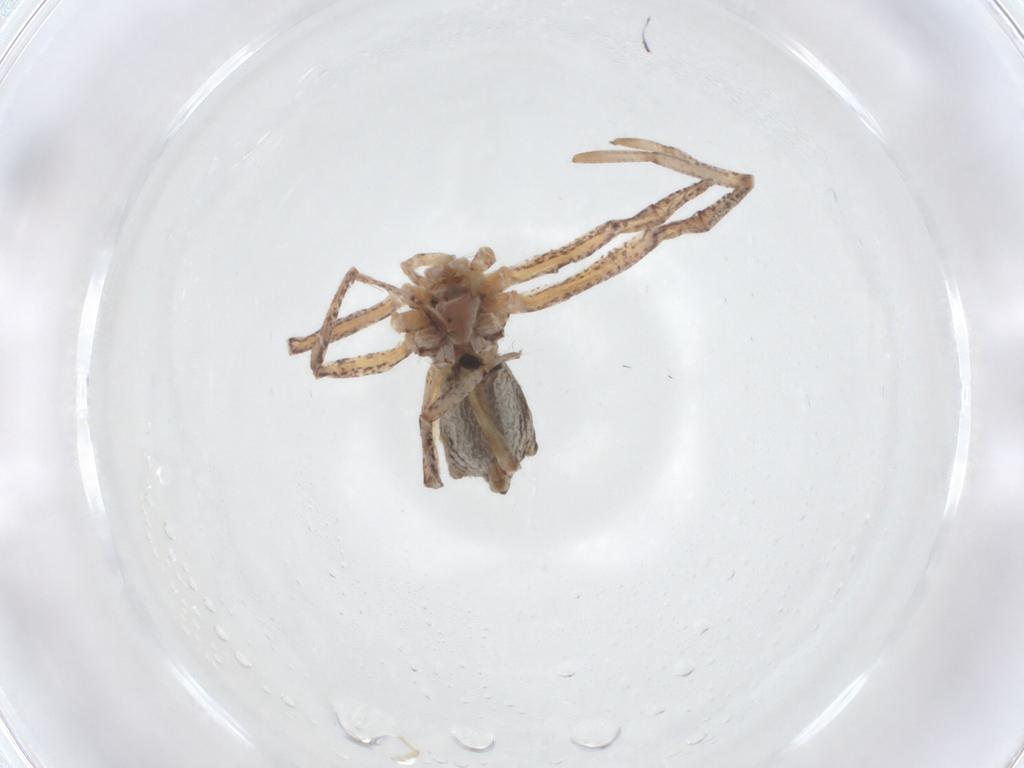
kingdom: Animalia
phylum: Arthropoda
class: Arachnida
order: Araneae
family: Philodromidae
